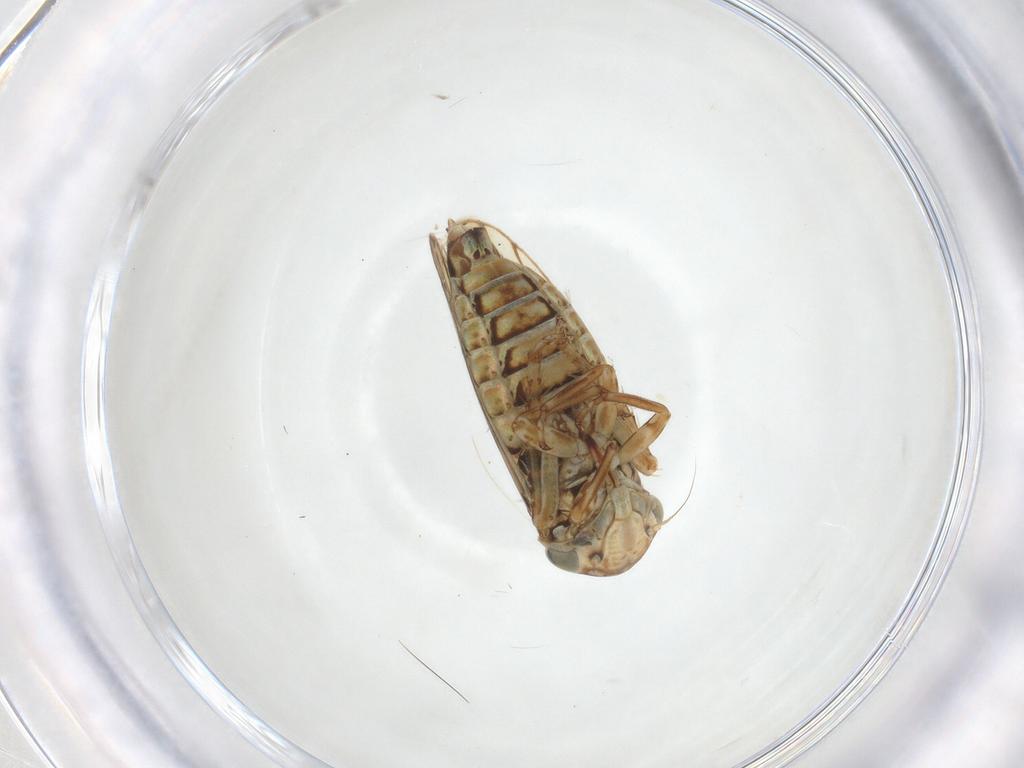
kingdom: Animalia
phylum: Arthropoda
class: Insecta
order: Hemiptera
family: Cicadellidae
